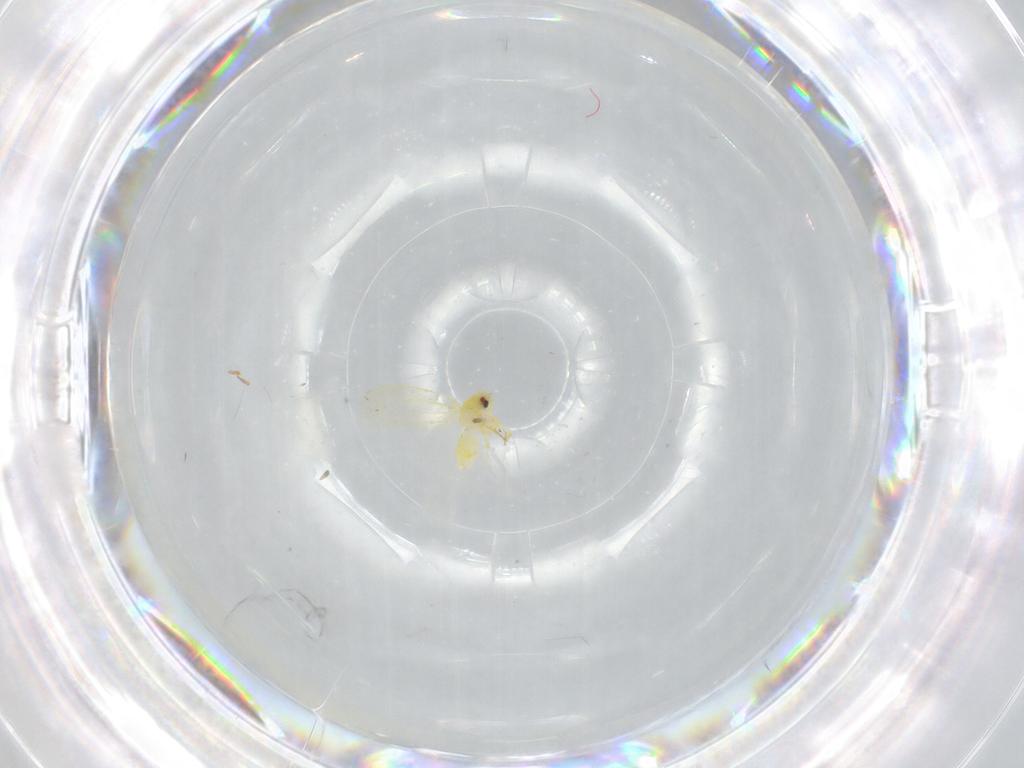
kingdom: Animalia
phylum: Arthropoda
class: Insecta
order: Hemiptera
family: Aleyrodidae
